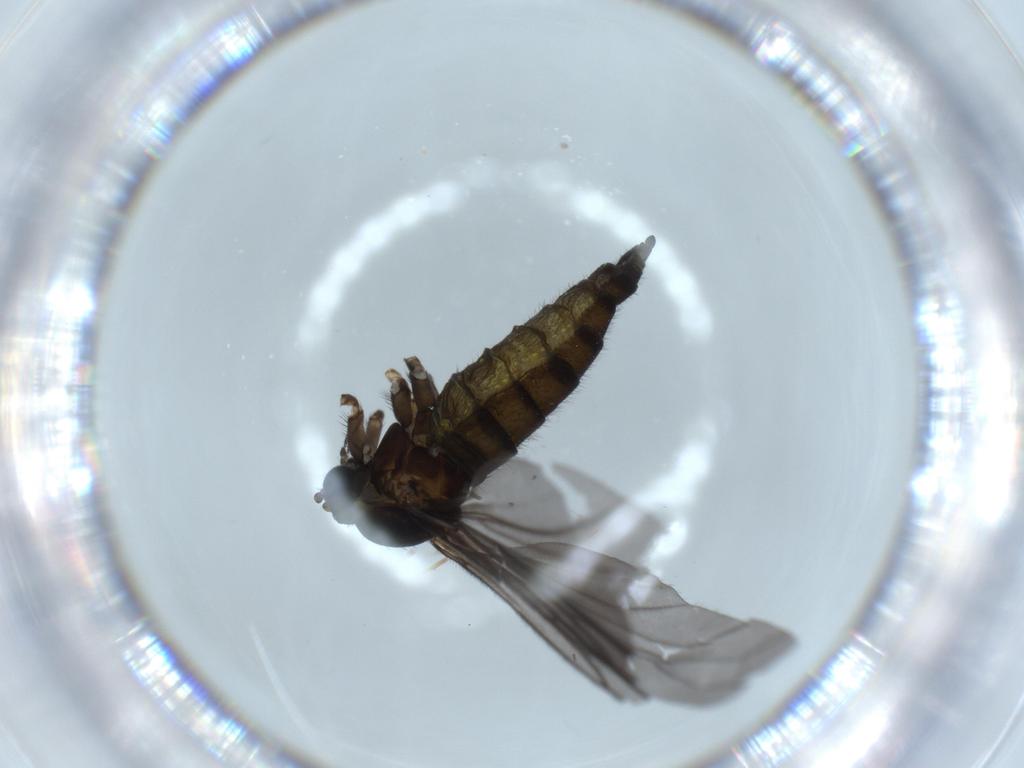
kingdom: Animalia
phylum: Arthropoda
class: Insecta
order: Diptera
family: Sciaridae
